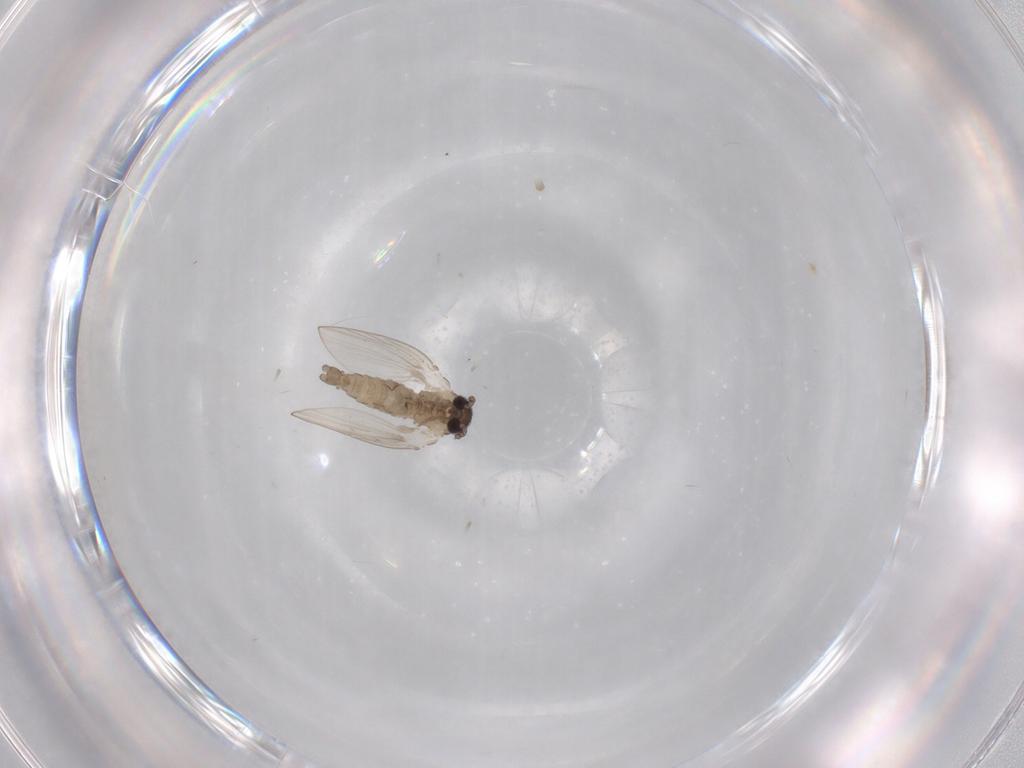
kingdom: Animalia
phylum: Arthropoda
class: Insecta
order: Diptera
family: Psychodidae
